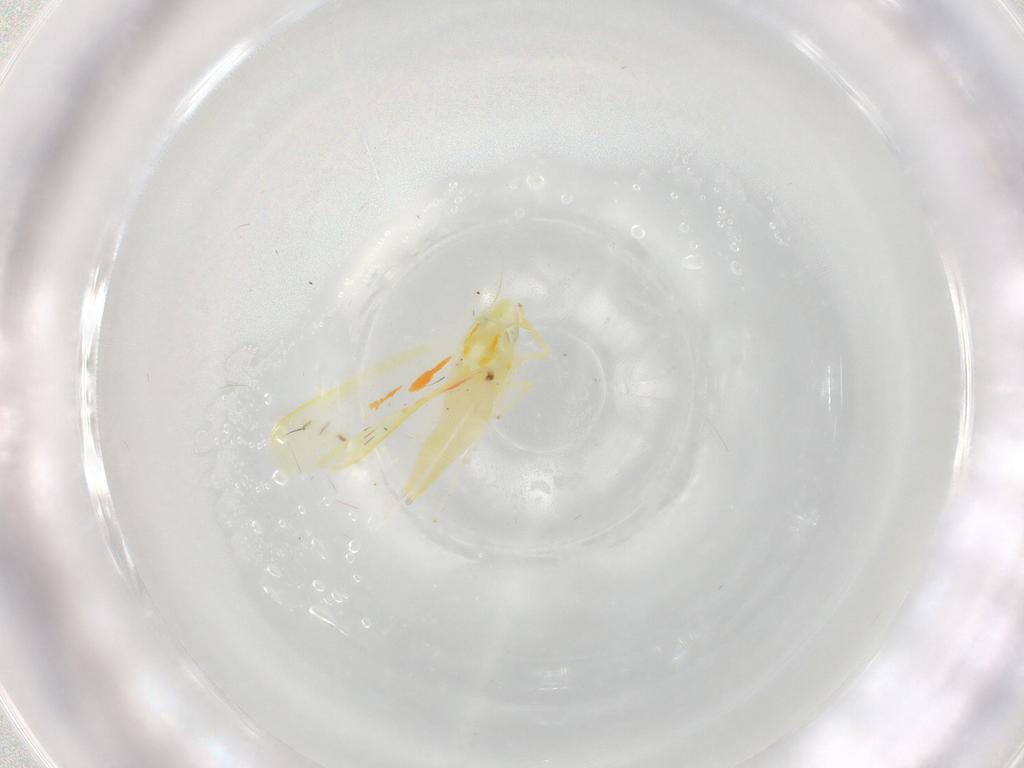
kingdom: Animalia
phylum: Arthropoda
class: Insecta
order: Hemiptera
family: Cicadellidae
